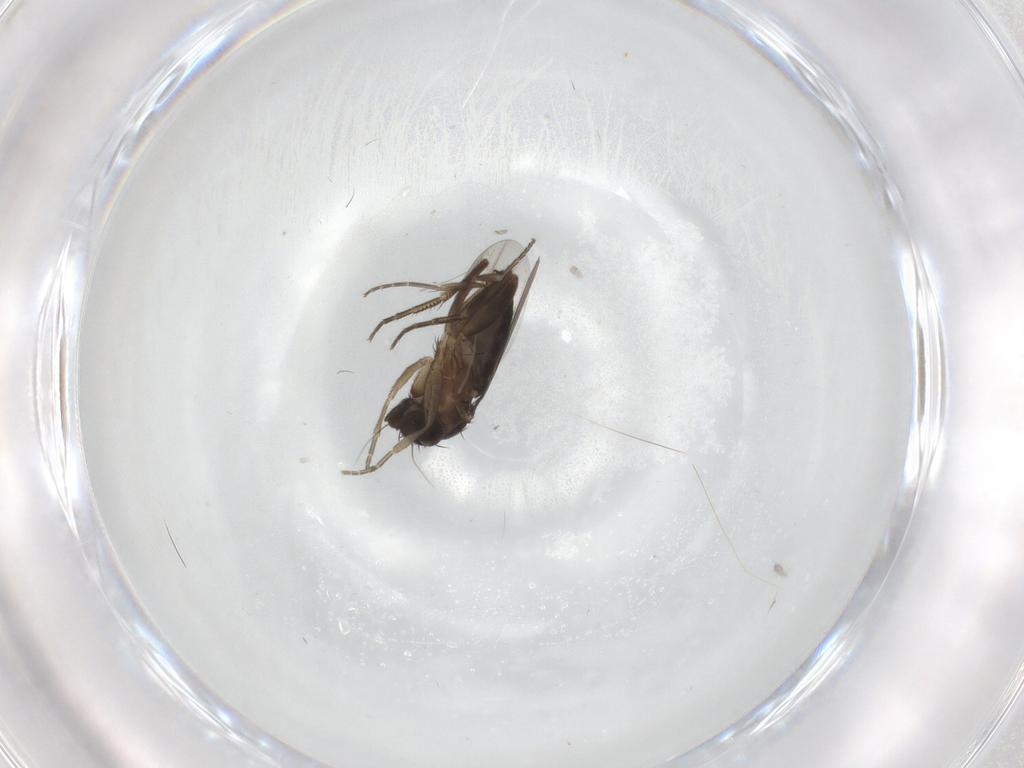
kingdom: Animalia
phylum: Arthropoda
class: Insecta
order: Diptera
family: Phoridae
